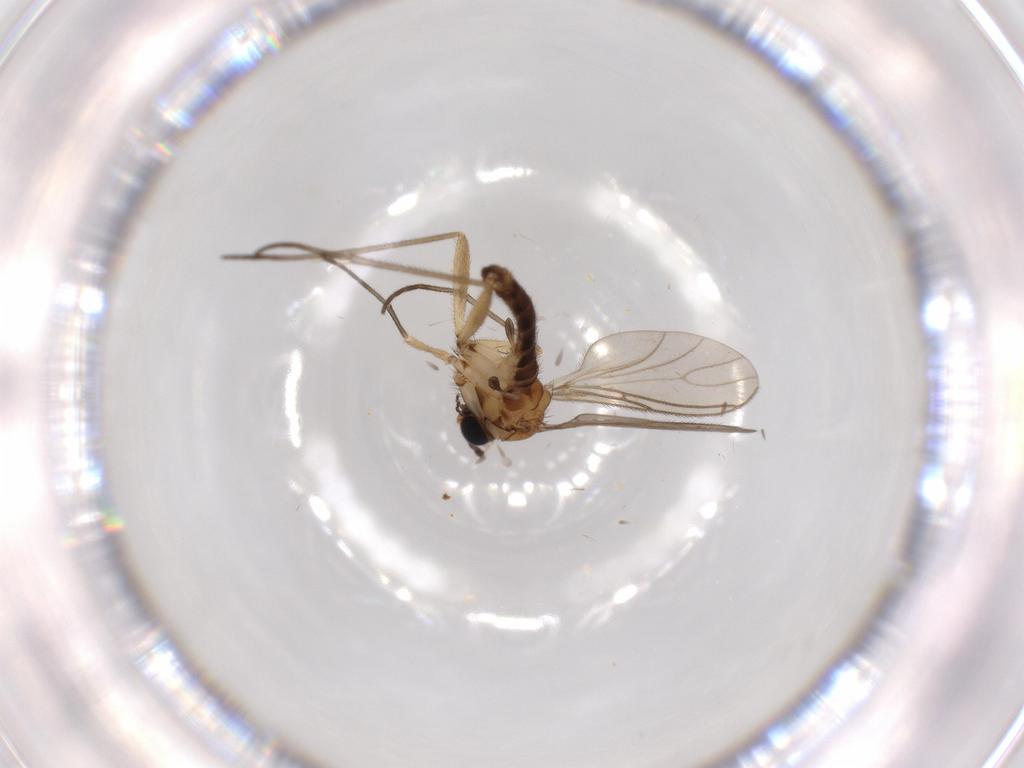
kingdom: Animalia
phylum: Arthropoda
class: Insecta
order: Diptera
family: Sciaridae
